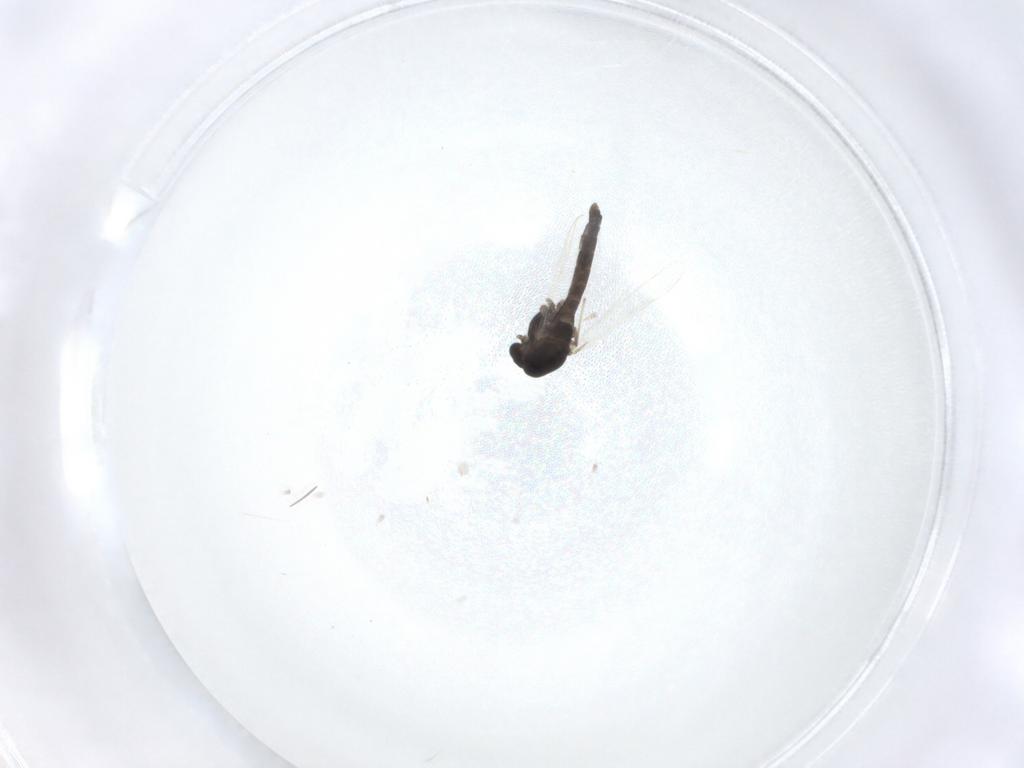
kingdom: Animalia
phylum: Arthropoda
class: Insecta
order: Diptera
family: Chironomidae
